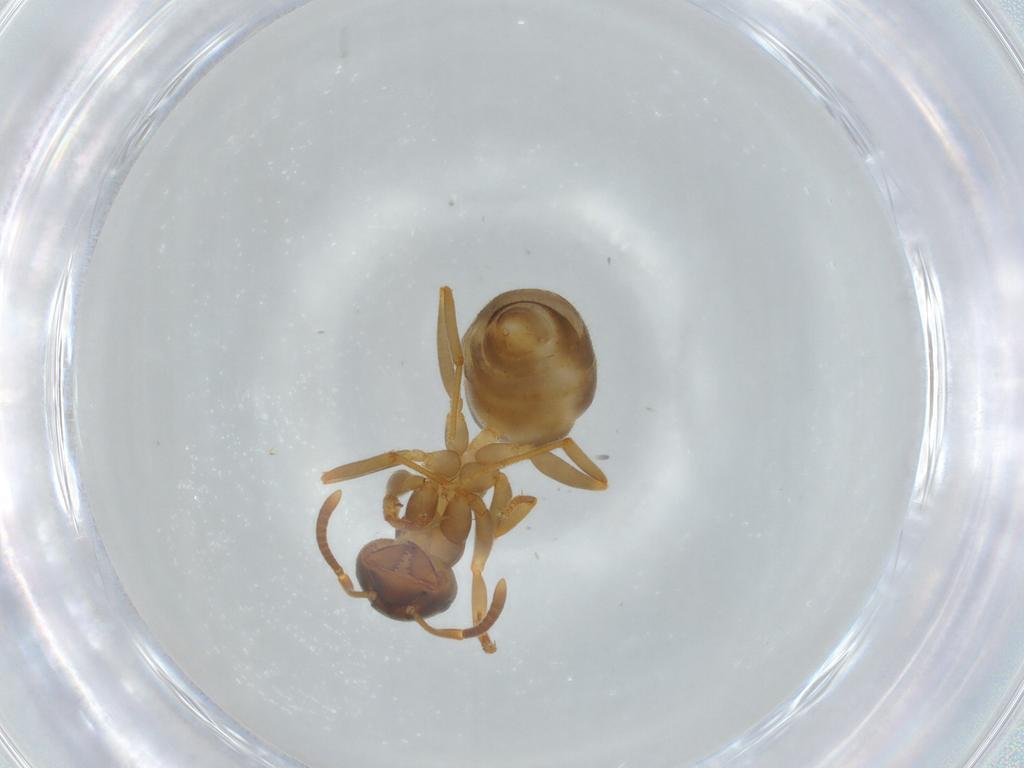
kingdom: Animalia
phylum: Arthropoda
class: Insecta
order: Hymenoptera
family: Formicidae
